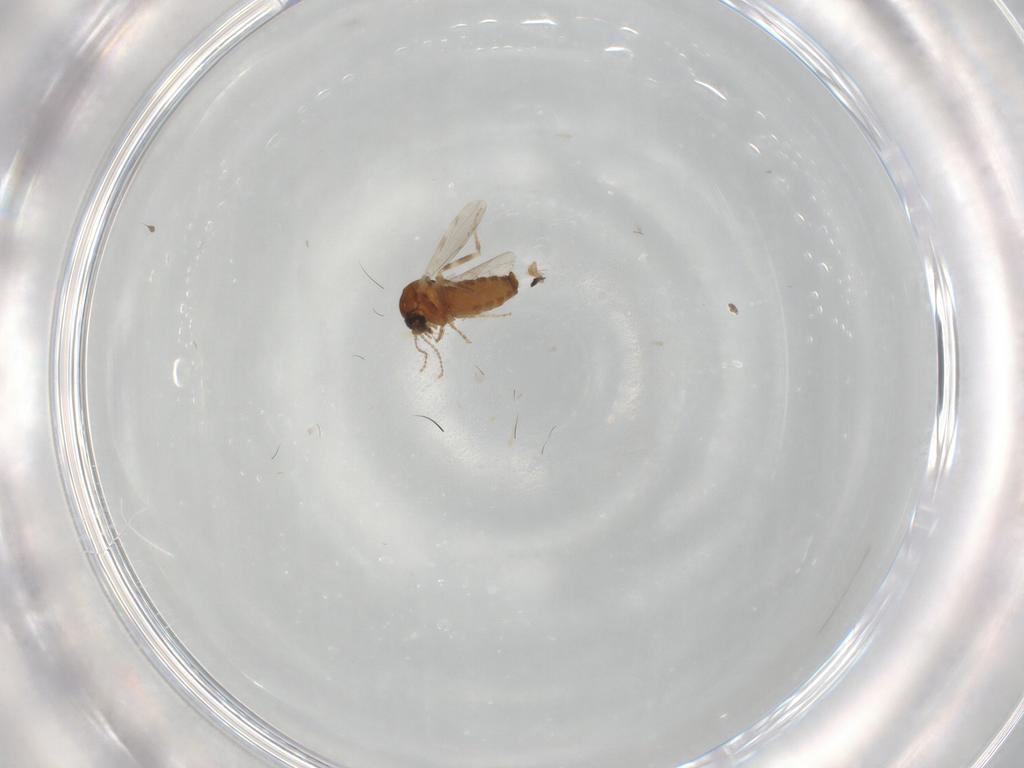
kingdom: Animalia
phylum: Arthropoda
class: Insecta
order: Diptera
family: Ceratopogonidae
